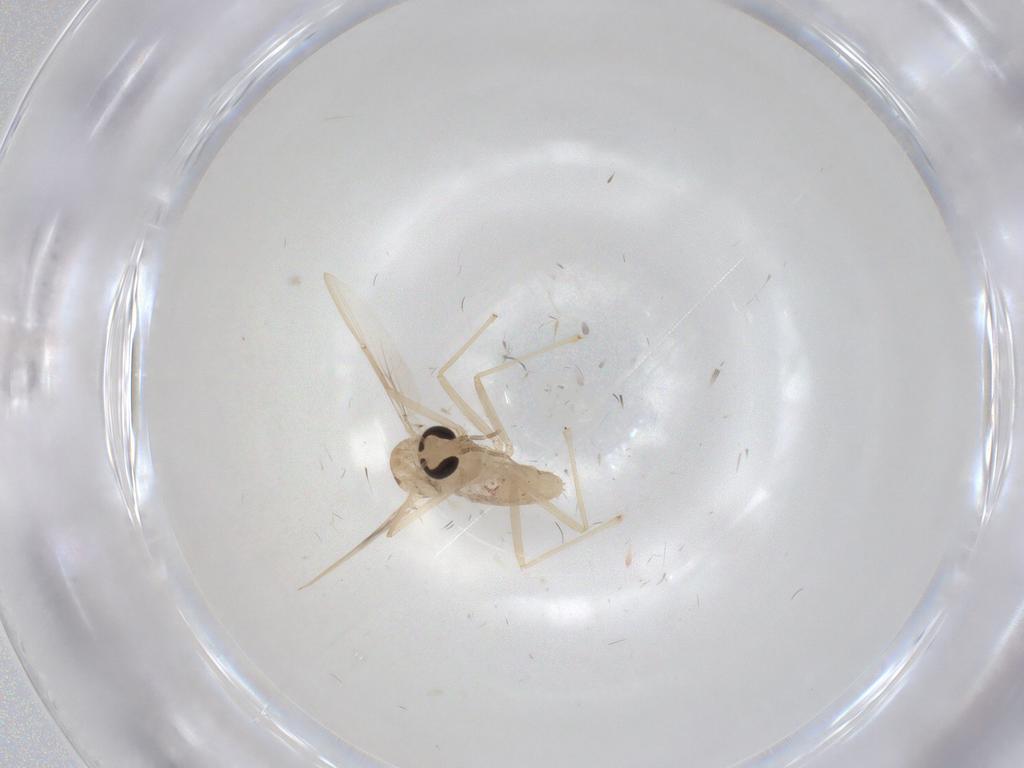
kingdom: Animalia
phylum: Arthropoda
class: Insecta
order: Diptera
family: Chironomidae
